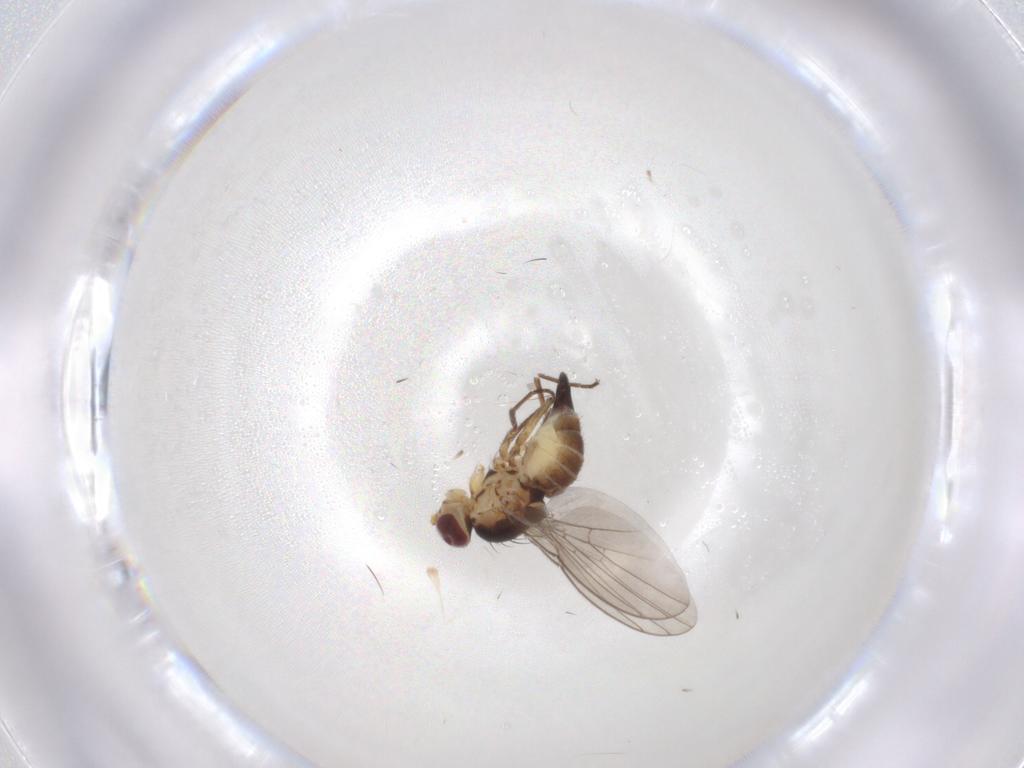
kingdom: Animalia
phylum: Arthropoda
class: Insecta
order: Diptera
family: Agromyzidae
